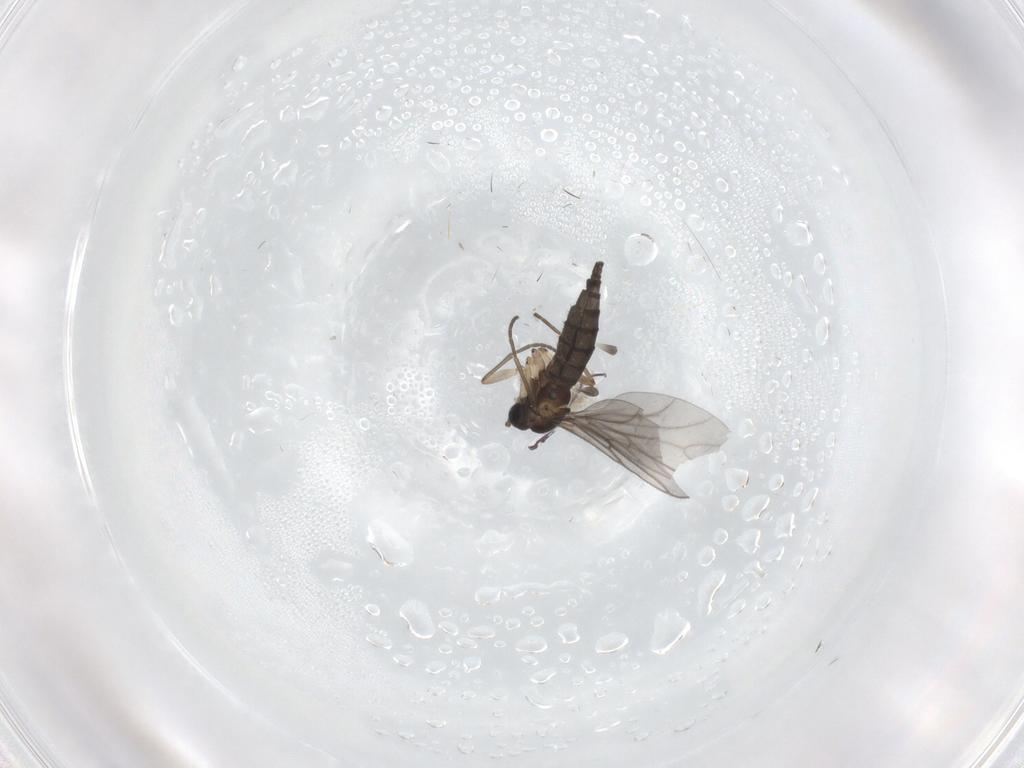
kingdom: Animalia
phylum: Arthropoda
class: Insecta
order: Diptera
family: Sciaridae
